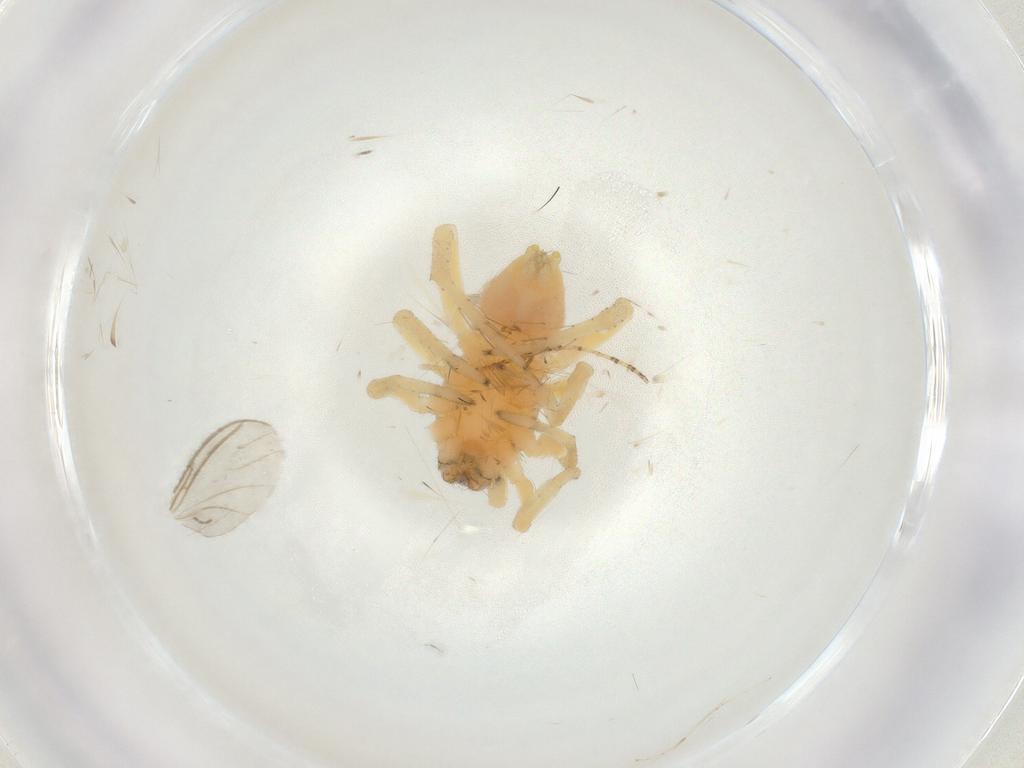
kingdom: Animalia
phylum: Arthropoda
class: Arachnida
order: Araneae
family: Clubionidae
